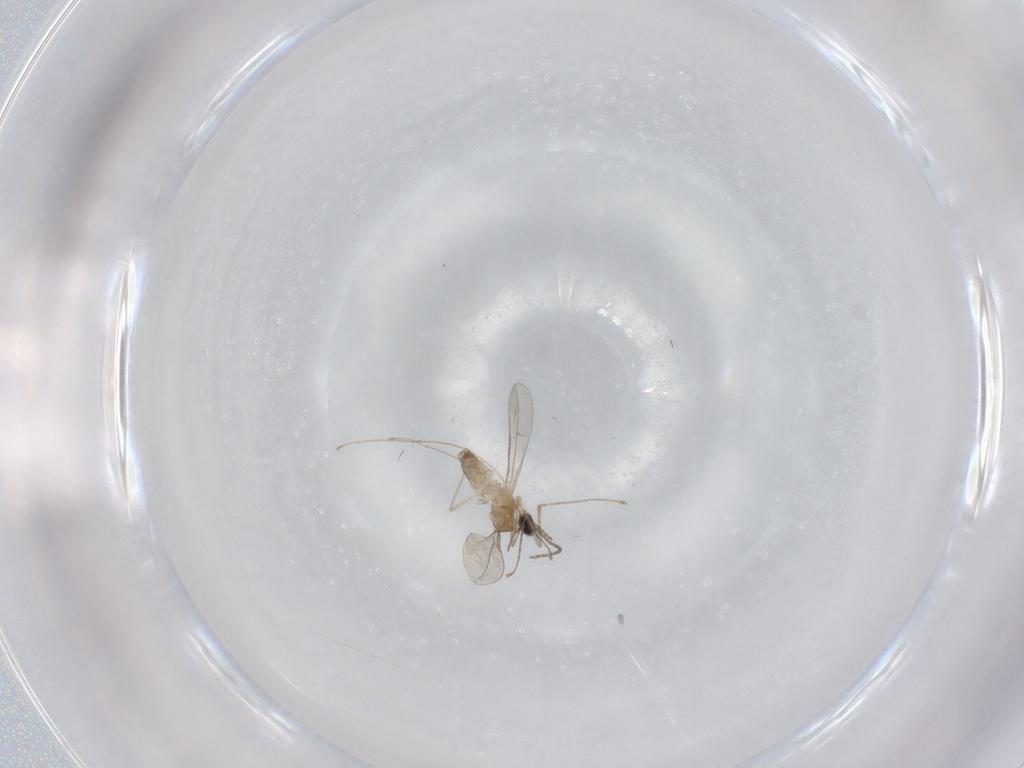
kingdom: Animalia
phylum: Arthropoda
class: Insecta
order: Diptera
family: Cecidomyiidae
